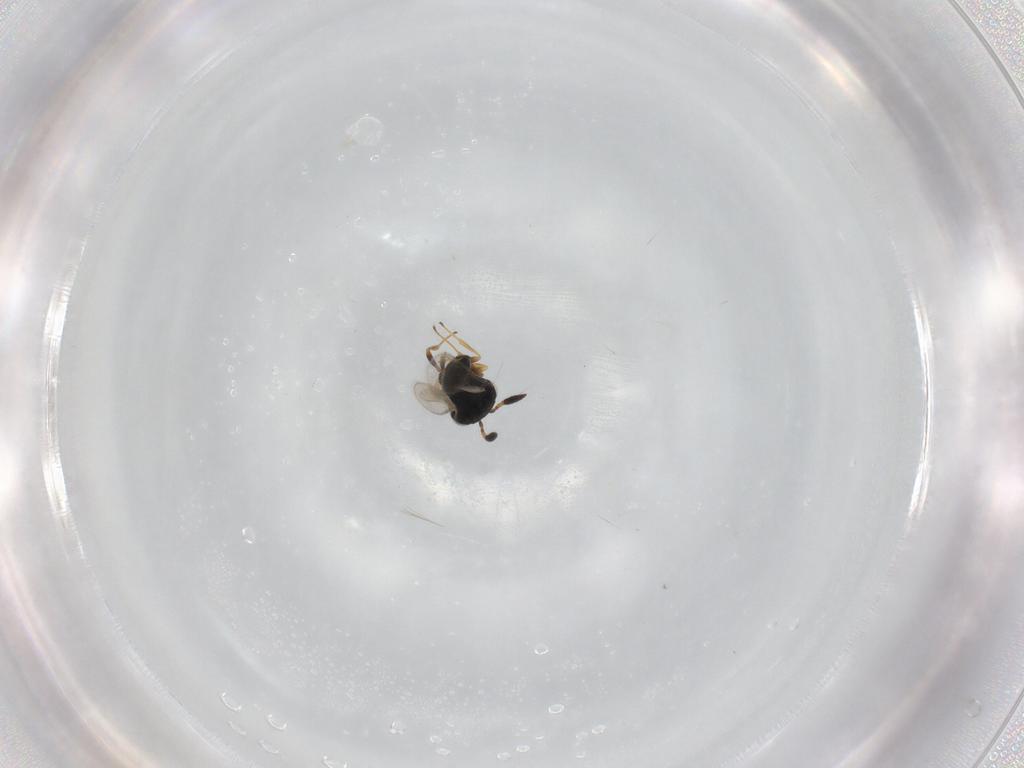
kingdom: Animalia
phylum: Arthropoda
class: Insecta
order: Hymenoptera
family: Scelionidae
